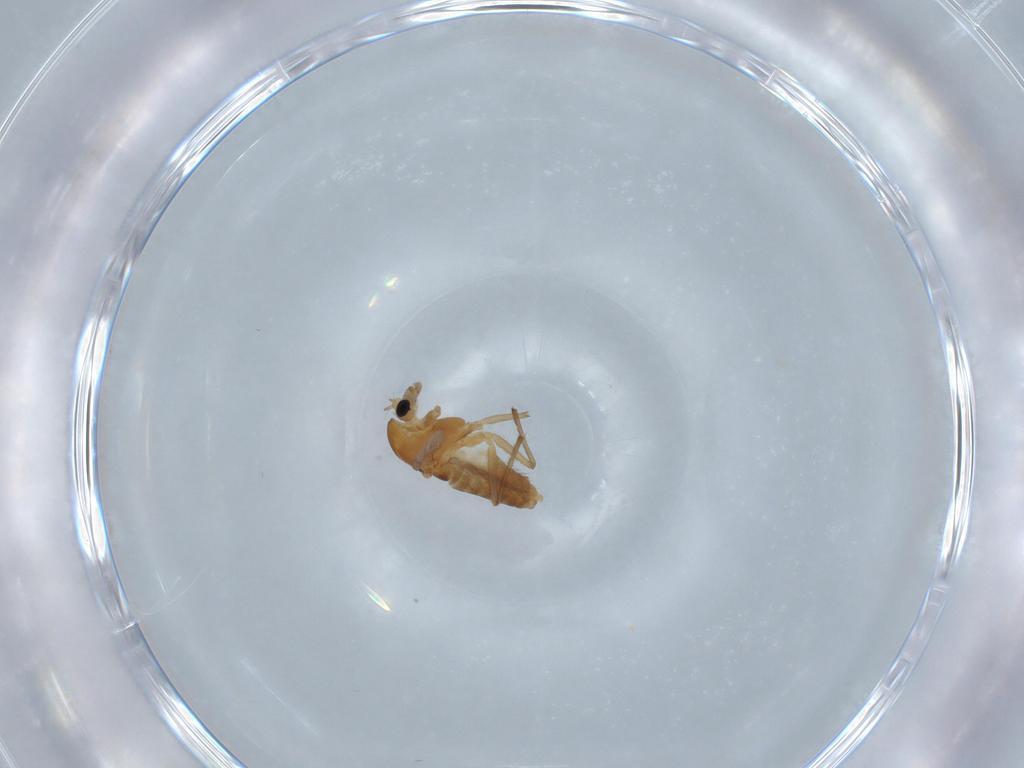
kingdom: Animalia
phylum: Arthropoda
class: Insecta
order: Diptera
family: Chironomidae
